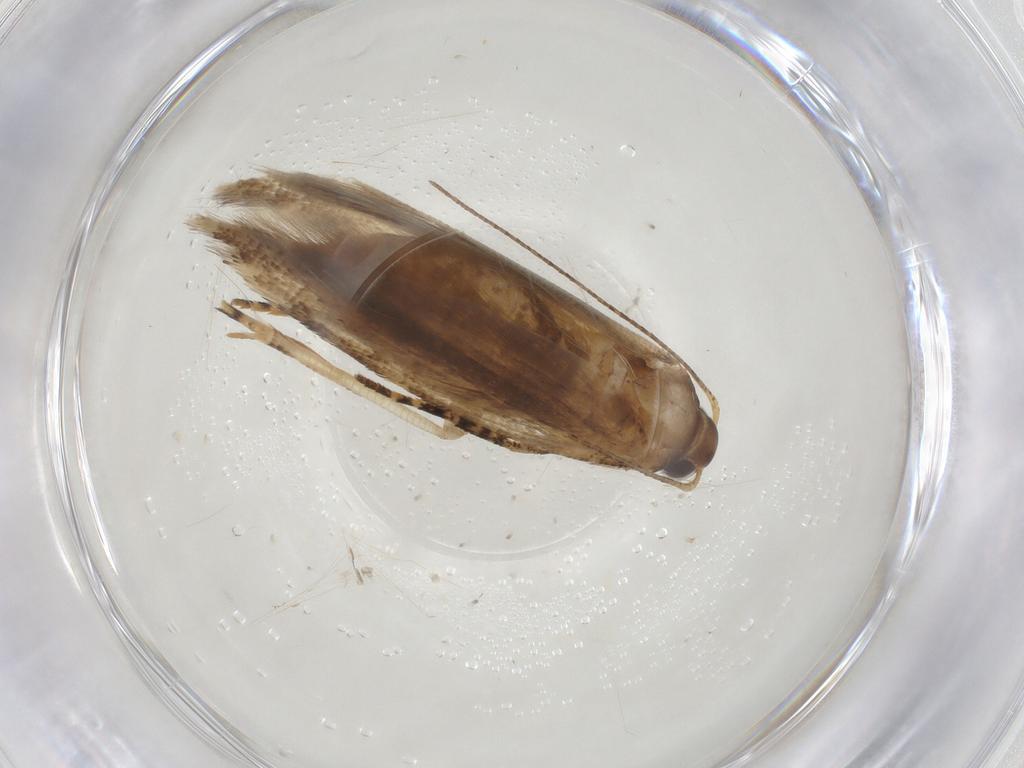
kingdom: Animalia
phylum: Arthropoda
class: Insecta
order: Lepidoptera
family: Gelechiidae
